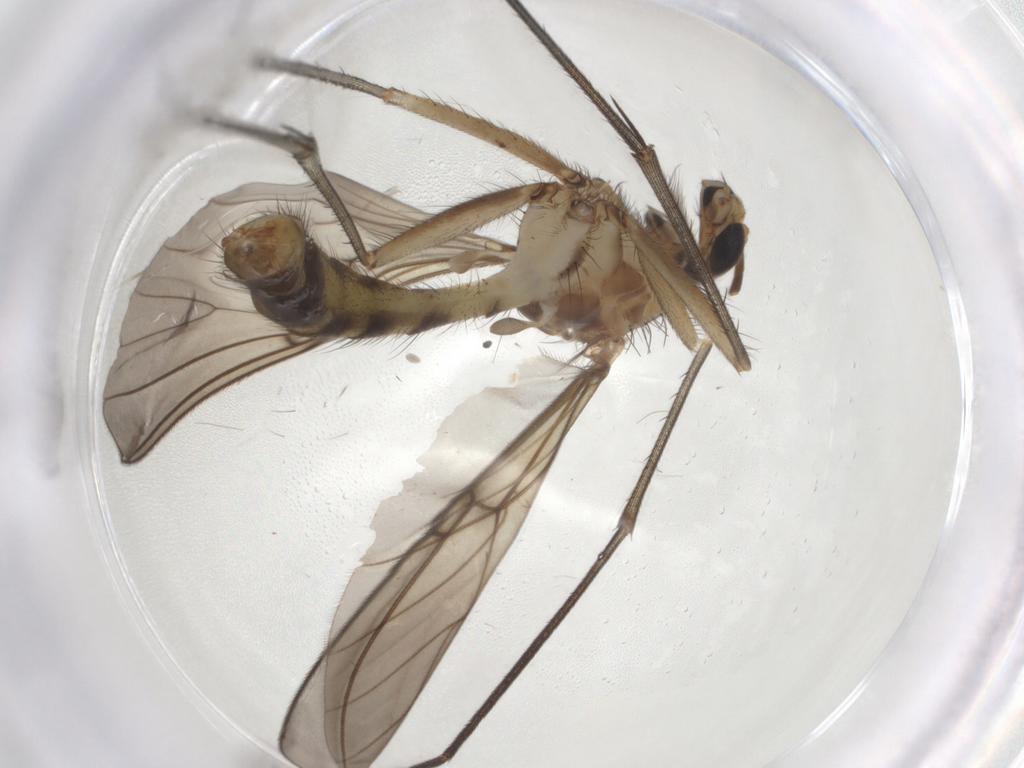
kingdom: Animalia
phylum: Arthropoda
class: Insecta
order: Diptera
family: Mycetophilidae
